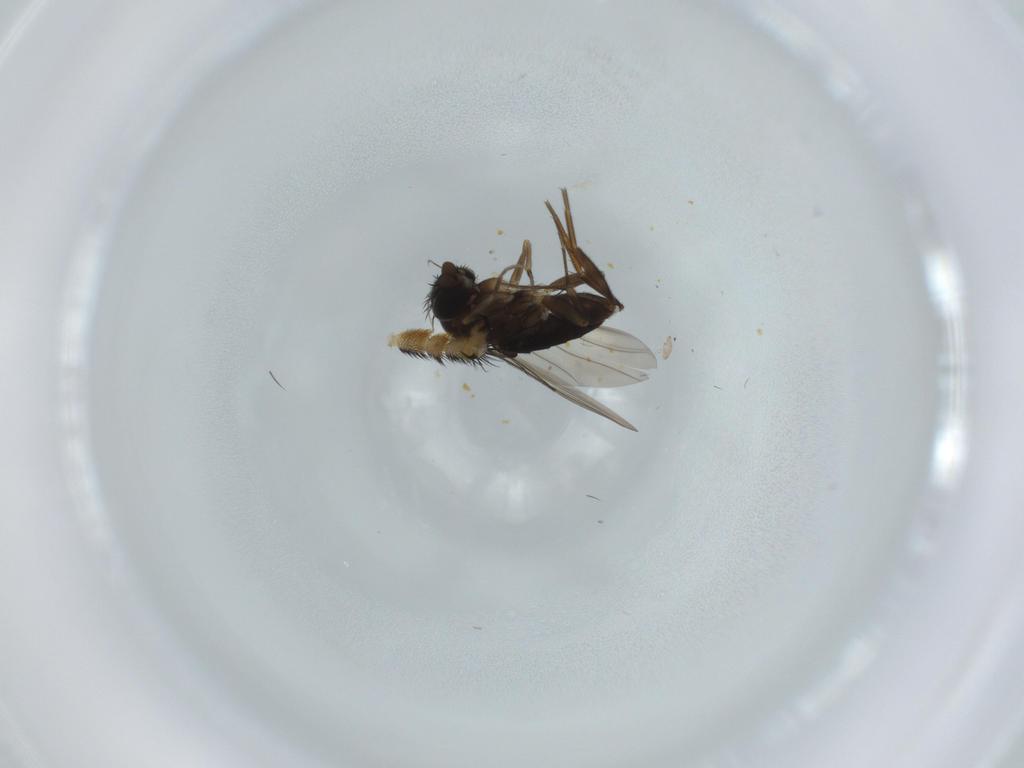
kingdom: Animalia
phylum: Arthropoda
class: Insecta
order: Diptera
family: Stratiomyidae
